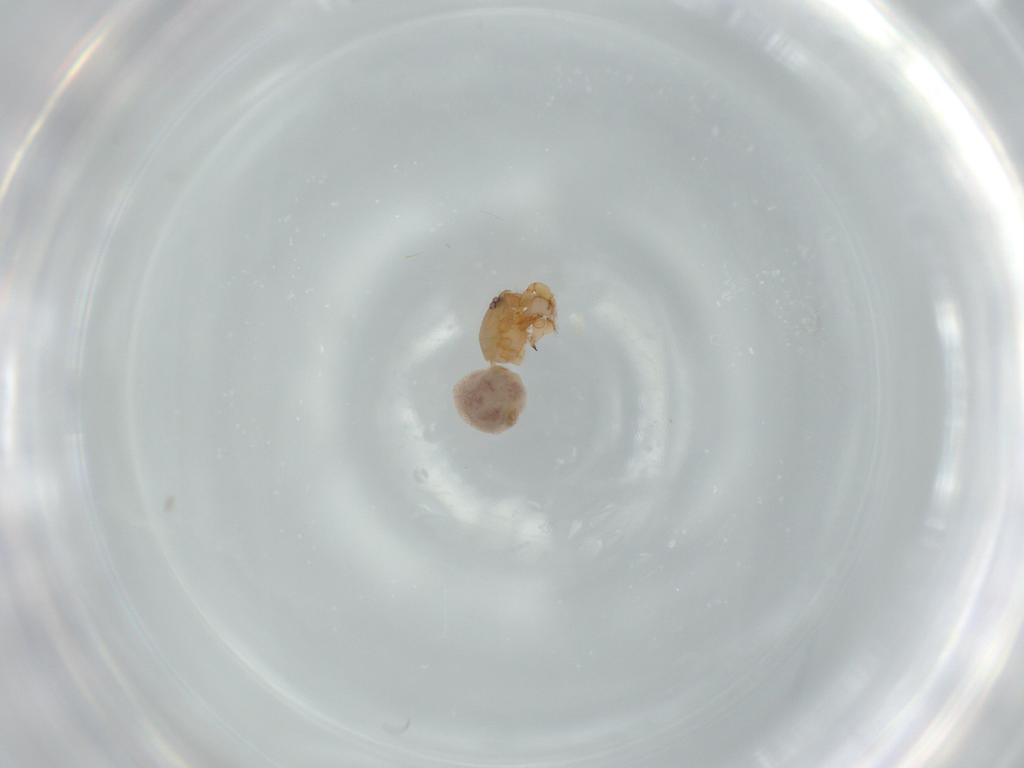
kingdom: Animalia
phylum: Arthropoda
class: Arachnida
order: Araneae
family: Oonopidae
